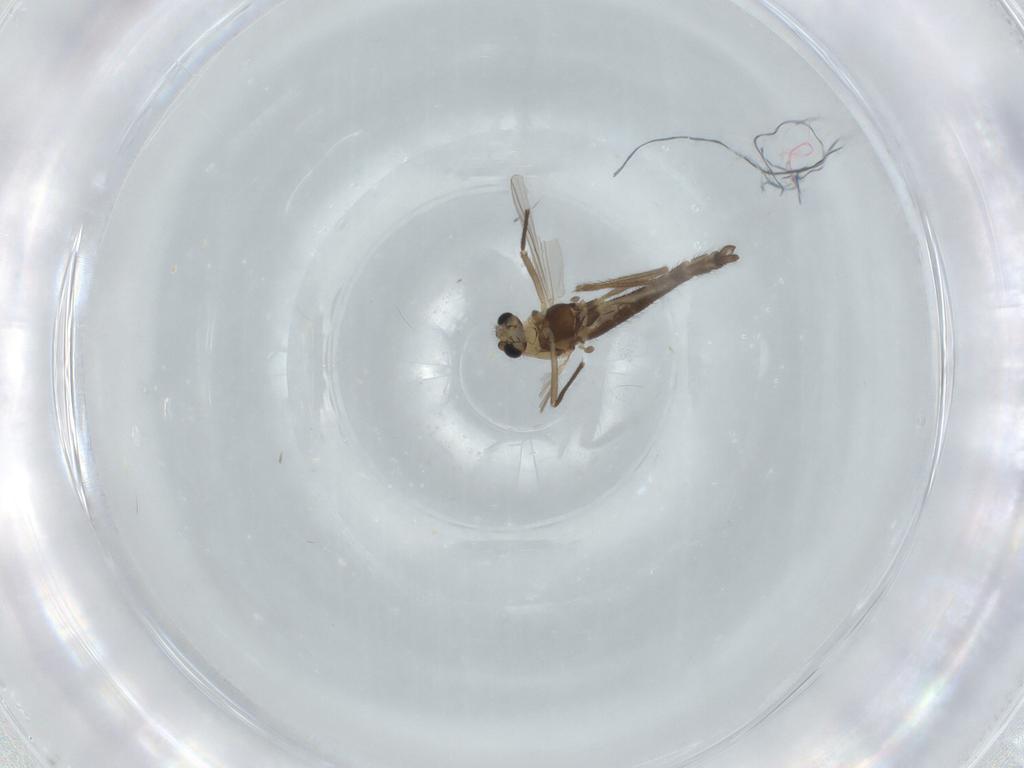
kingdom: Animalia
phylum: Arthropoda
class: Insecta
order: Diptera
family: Chironomidae
